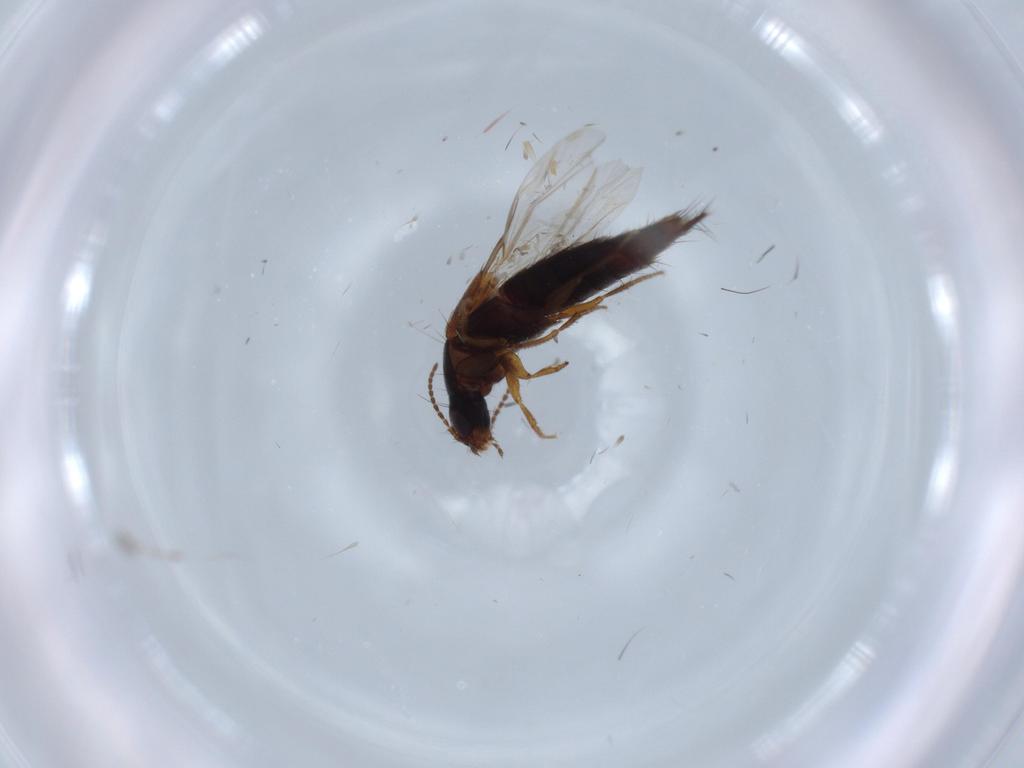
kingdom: Animalia
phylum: Arthropoda
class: Insecta
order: Coleoptera
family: Staphylinidae
